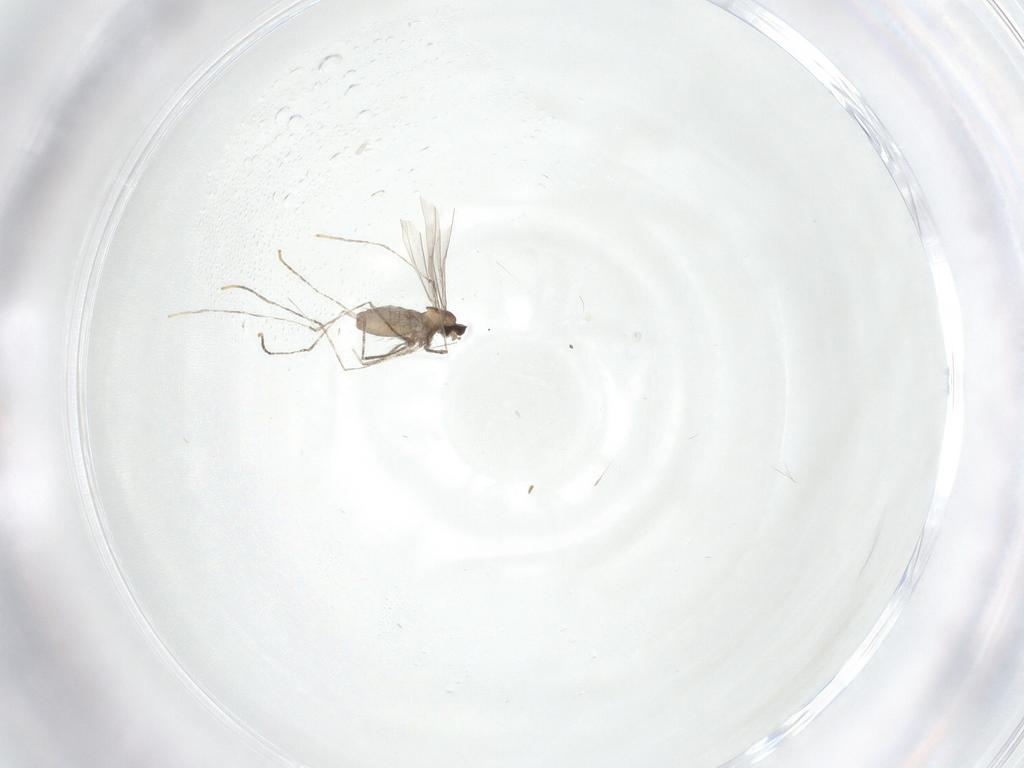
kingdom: Animalia
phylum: Arthropoda
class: Insecta
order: Diptera
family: Cecidomyiidae
